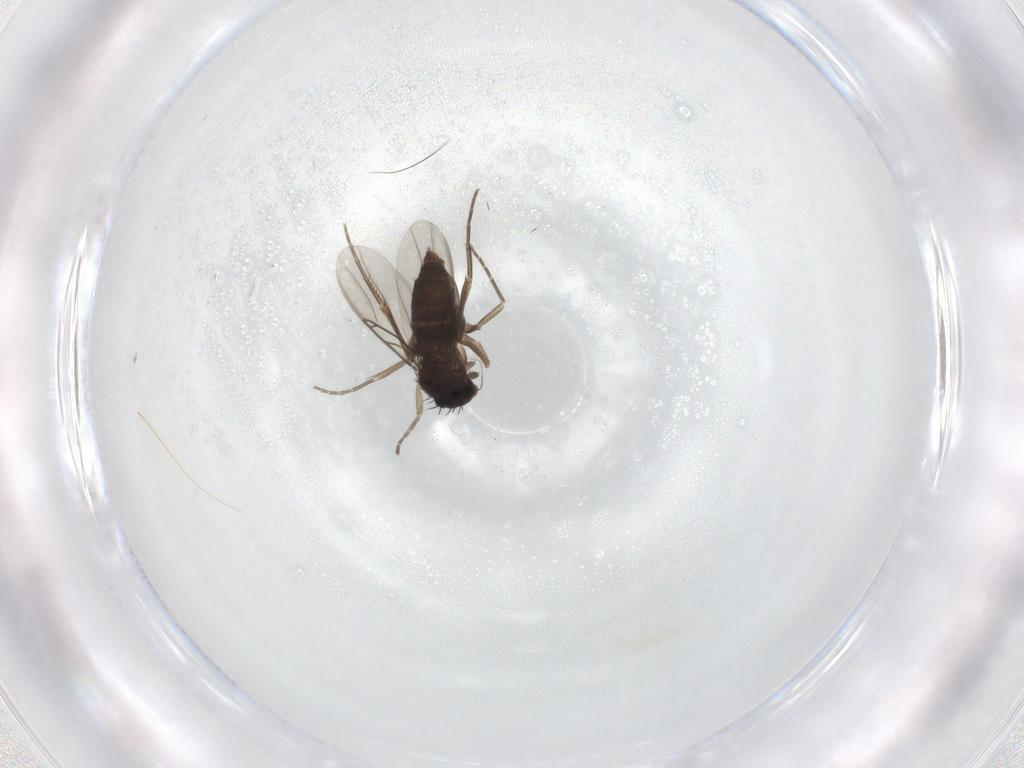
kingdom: Animalia
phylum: Arthropoda
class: Insecta
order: Diptera
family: Phoridae
